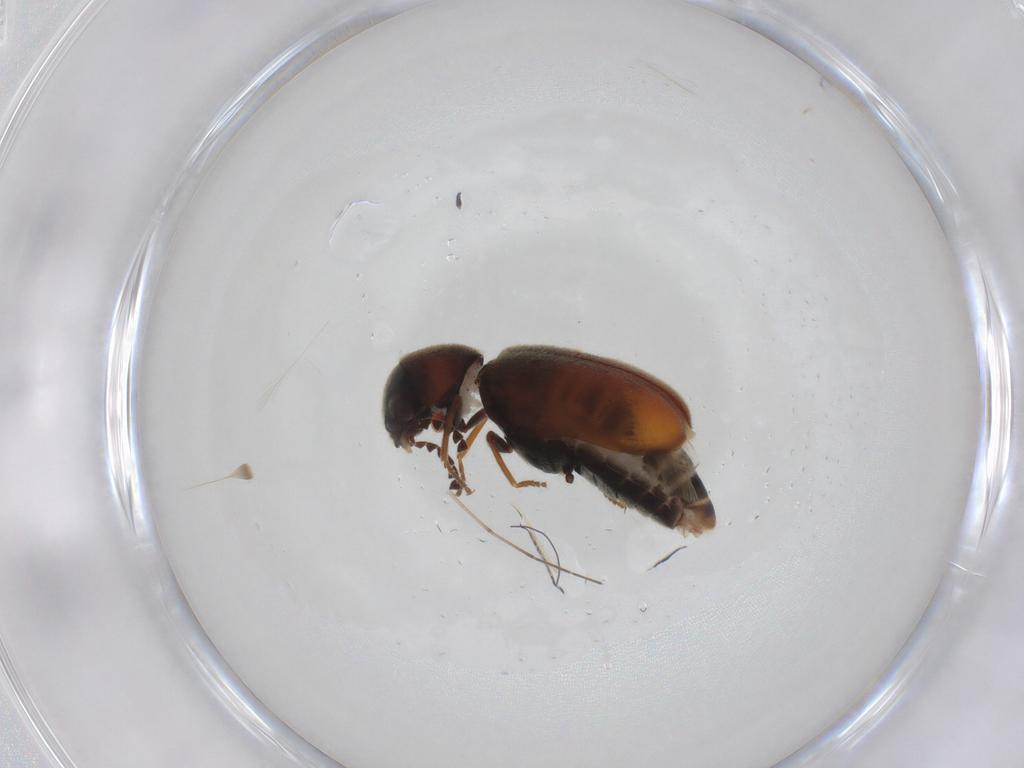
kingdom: Animalia
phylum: Arthropoda
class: Insecta
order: Coleoptera
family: Ptinidae
